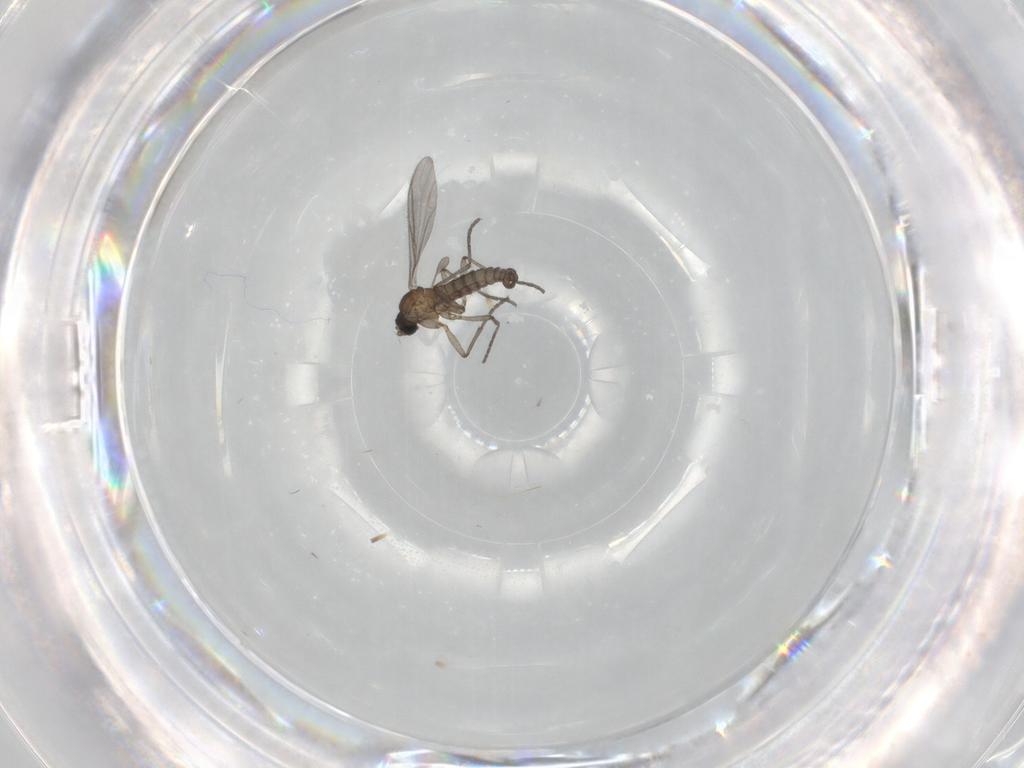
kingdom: Animalia
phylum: Arthropoda
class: Insecta
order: Diptera
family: Sciaridae
